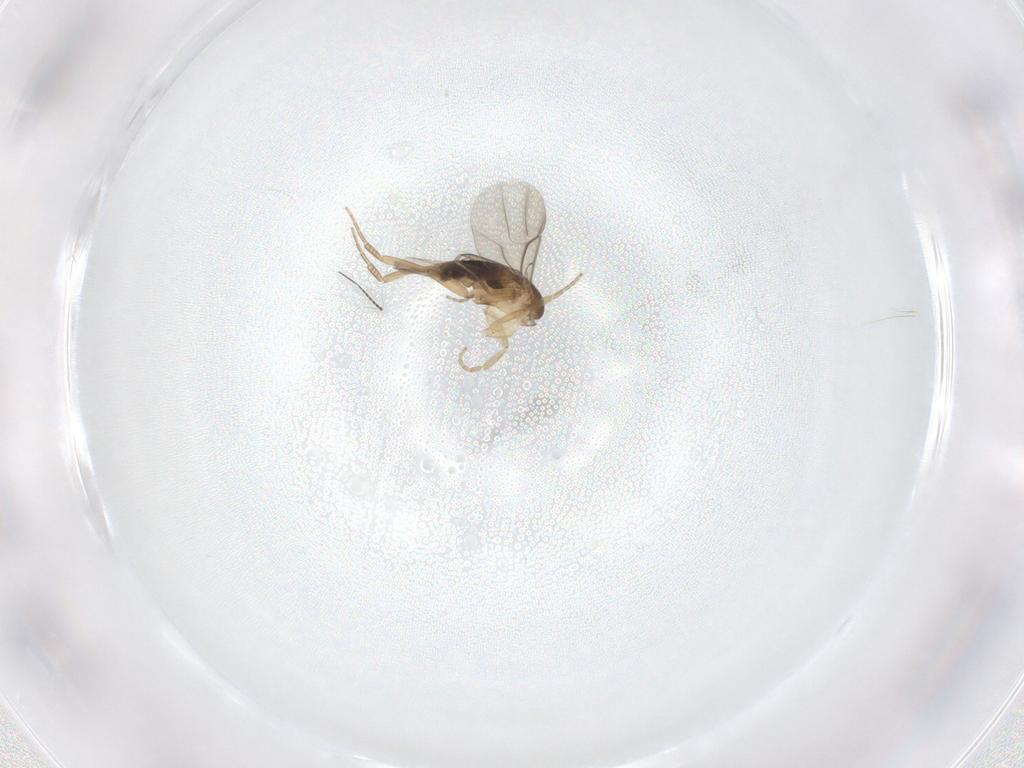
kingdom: Animalia
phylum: Arthropoda
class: Insecta
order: Diptera
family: Phoridae
